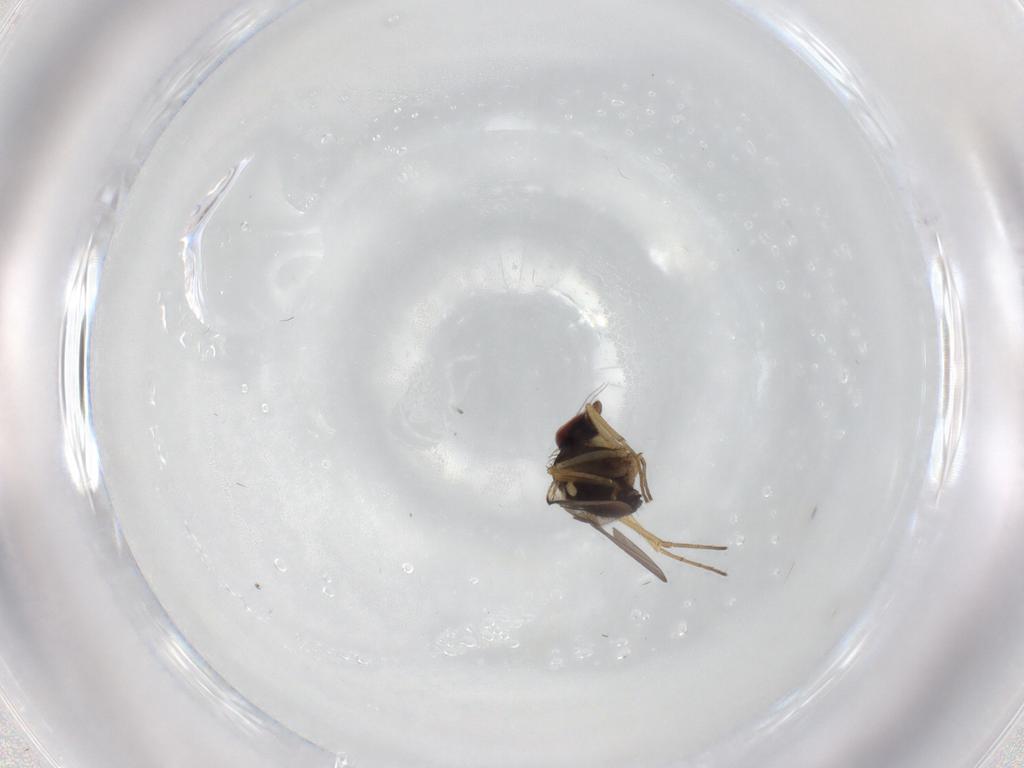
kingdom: Animalia
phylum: Arthropoda
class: Insecta
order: Diptera
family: Dolichopodidae
